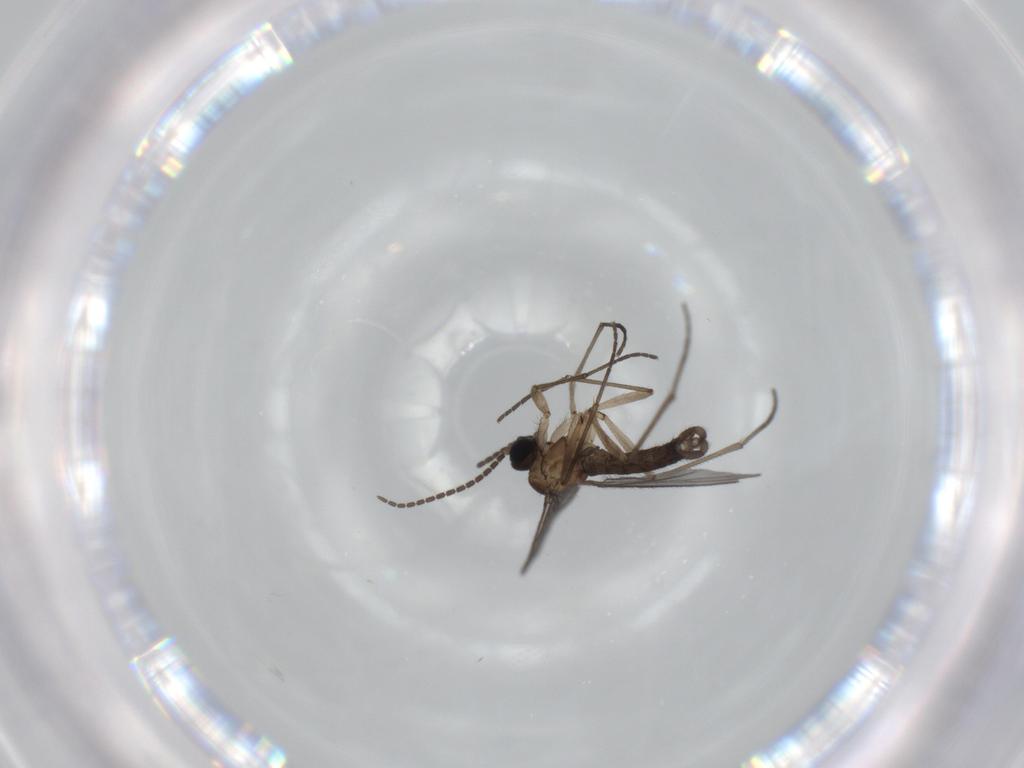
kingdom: Animalia
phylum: Arthropoda
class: Insecta
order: Diptera
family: Sciaridae
